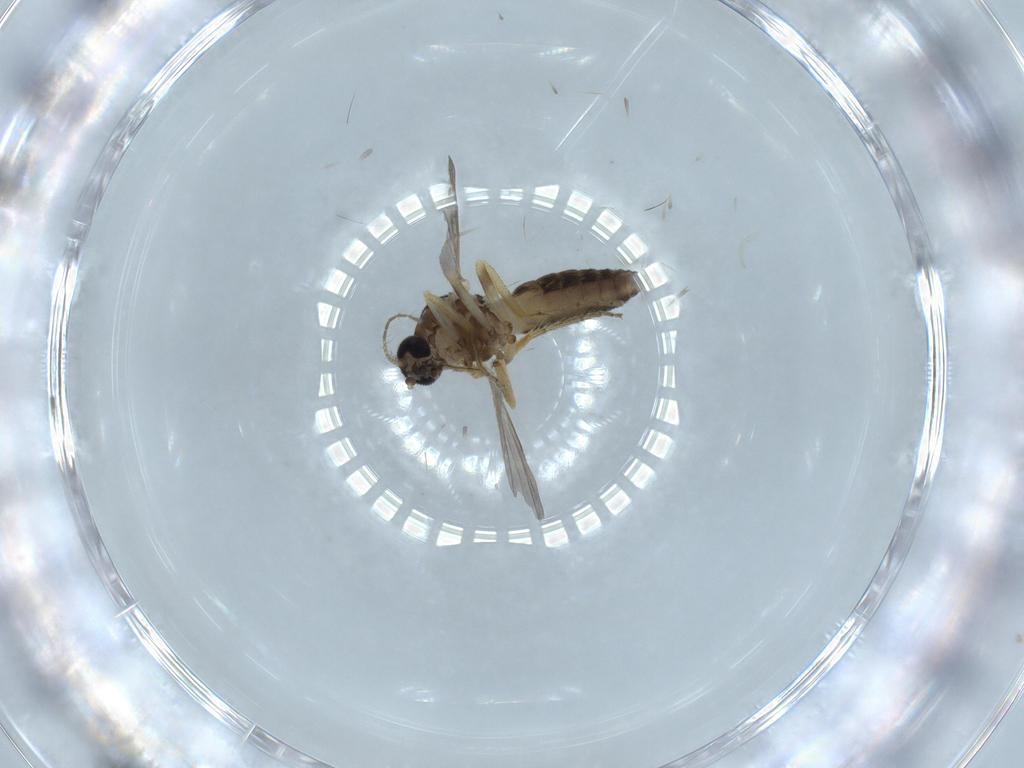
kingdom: Animalia
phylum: Arthropoda
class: Insecta
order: Diptera
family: Ceratopogonidae
